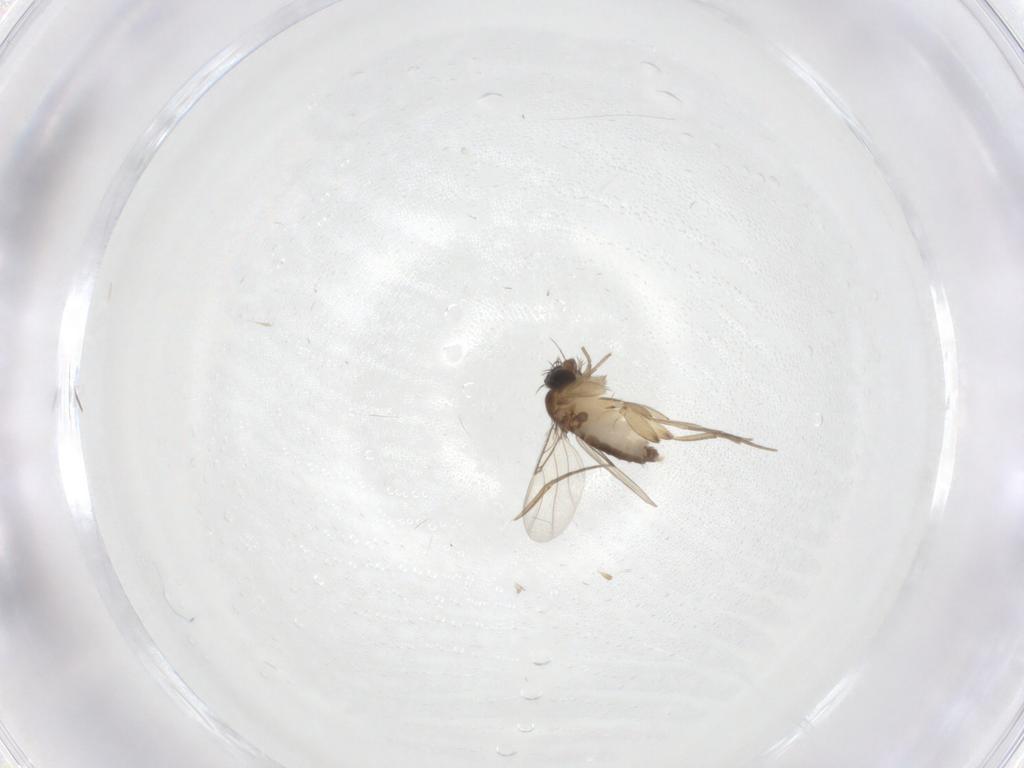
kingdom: Animalia
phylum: Arthropoda
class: Insecta
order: Diptera
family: Phoridae
